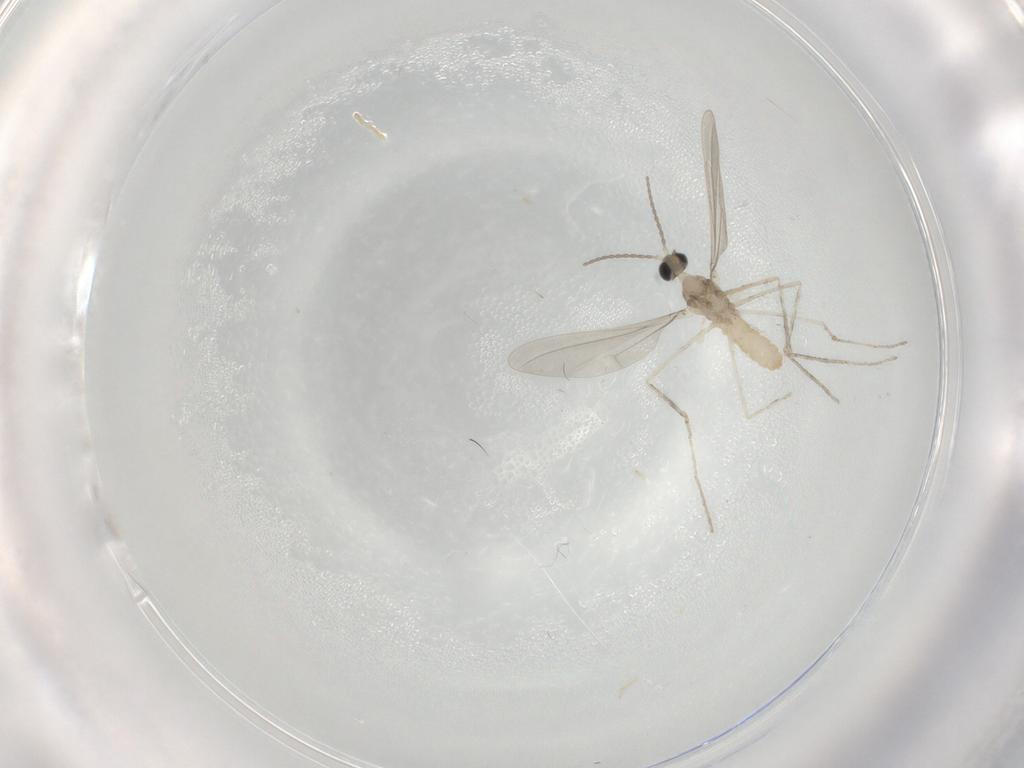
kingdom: Animalia
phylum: Arthropoda
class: Insecta
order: Diptera
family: Cecidomyiidae
